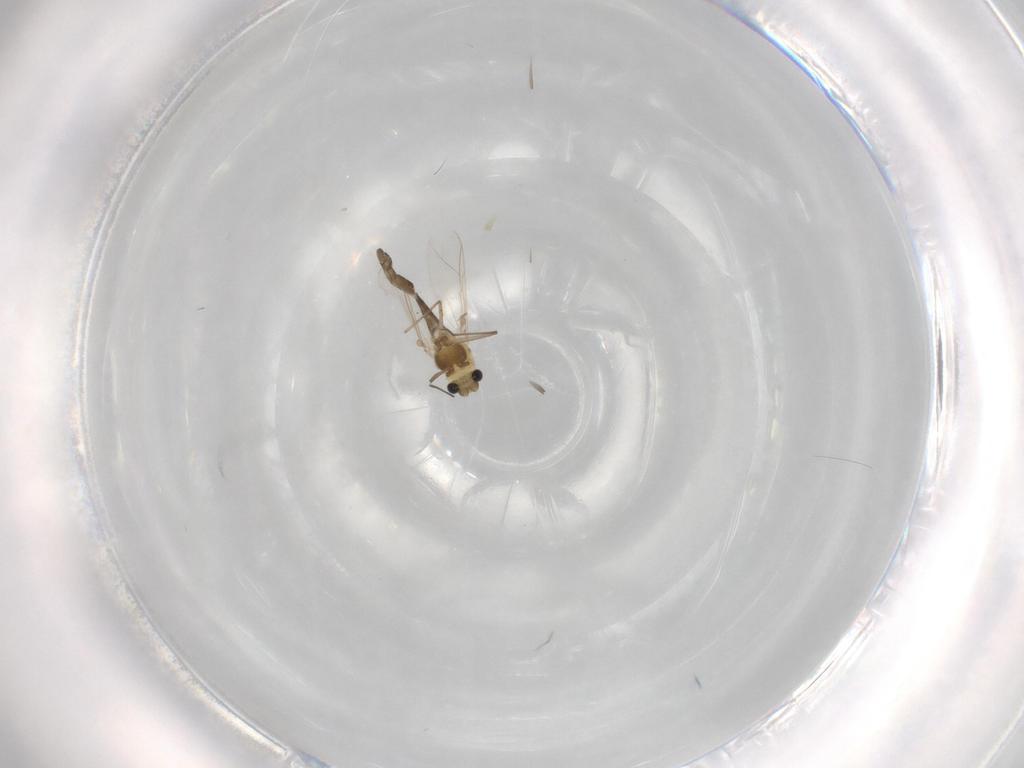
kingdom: Animalia
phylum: Arthropoda
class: Insecta
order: Diptera
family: Chironomidae
